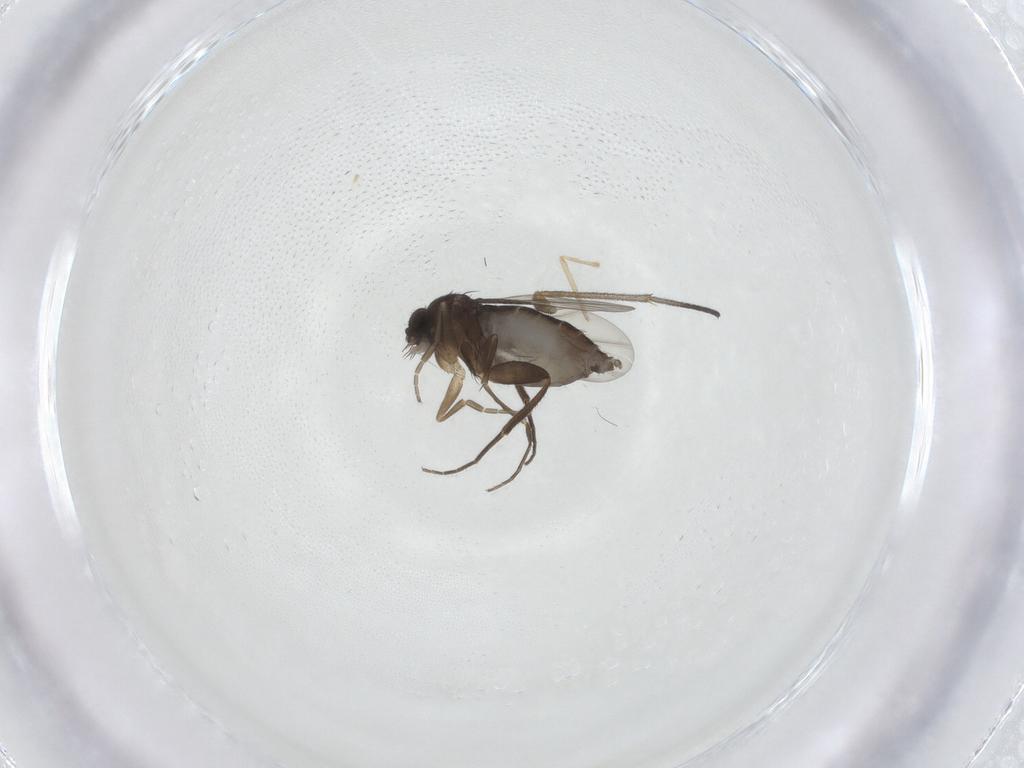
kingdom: Animalia
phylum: Arthropoda
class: Insecta
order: Diptera
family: Phoridae
